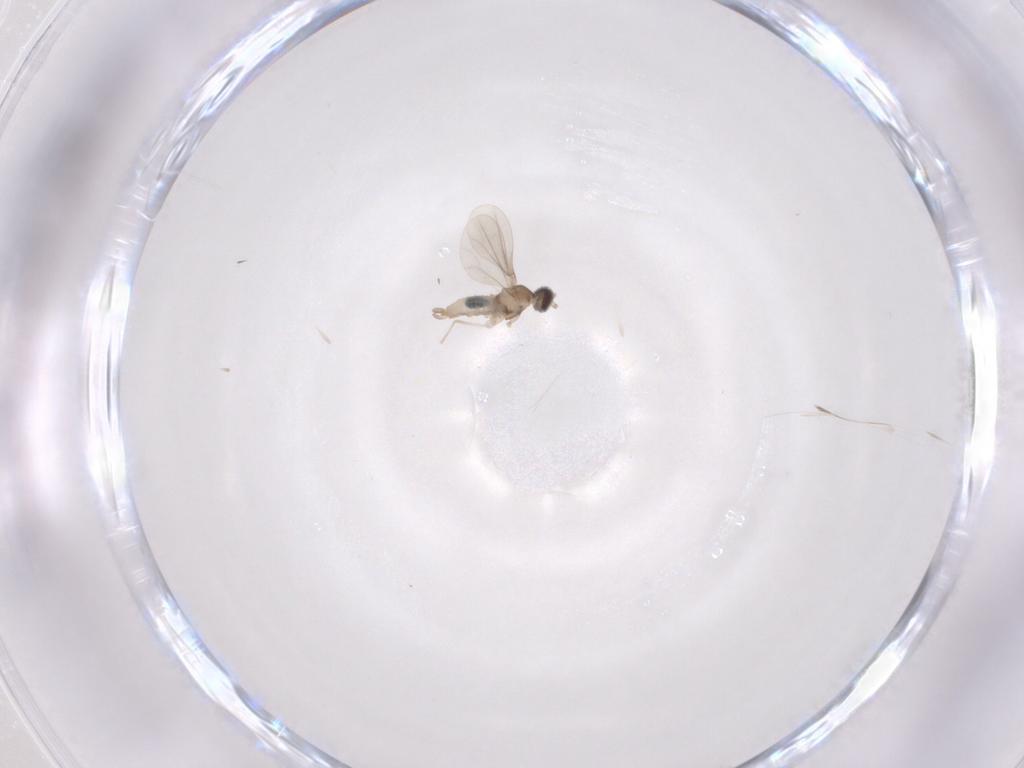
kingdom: Animalia
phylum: Arthropoda
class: Insecta
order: Diptera
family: Cecidomyiidae
